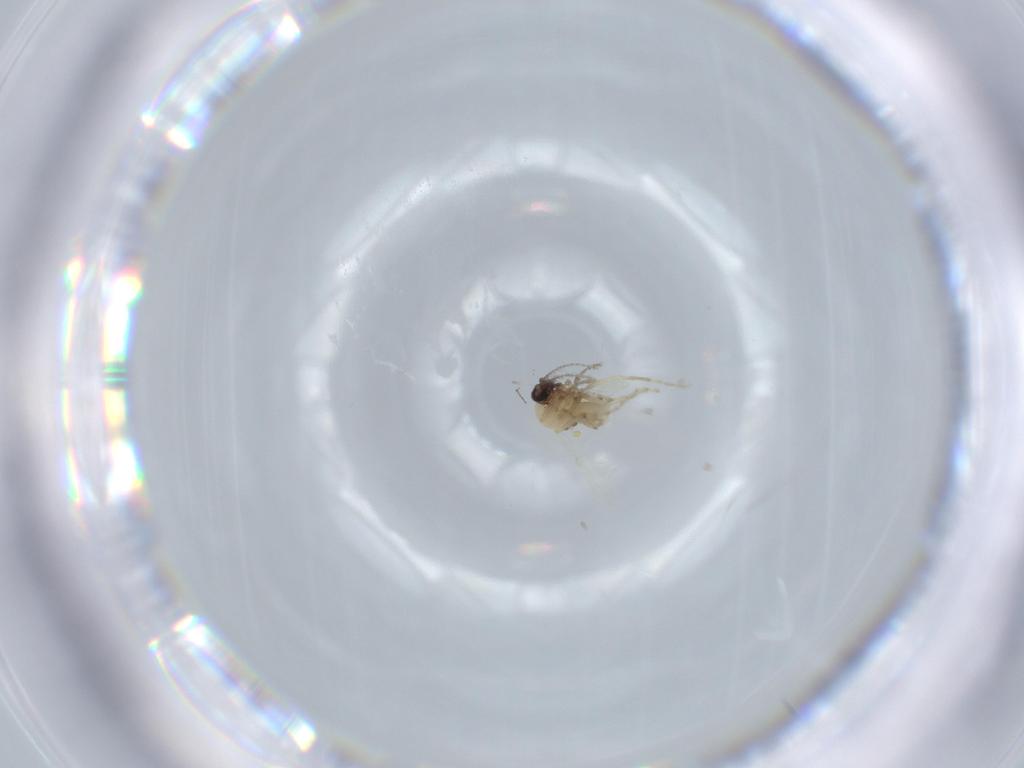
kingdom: Animalia
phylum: Arthropoda
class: Insecta
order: Diptera
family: Ceratopogonidae
